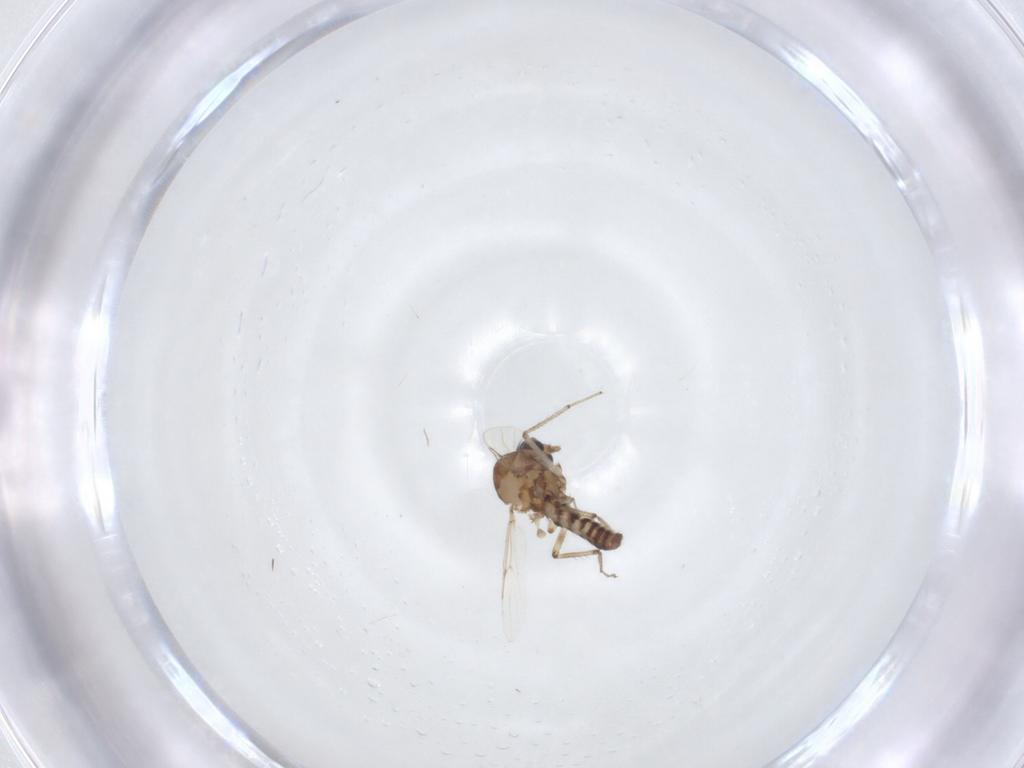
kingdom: Animalia
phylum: Arthropoda
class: Insecta
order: Diptera
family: Ceratopogonidae
